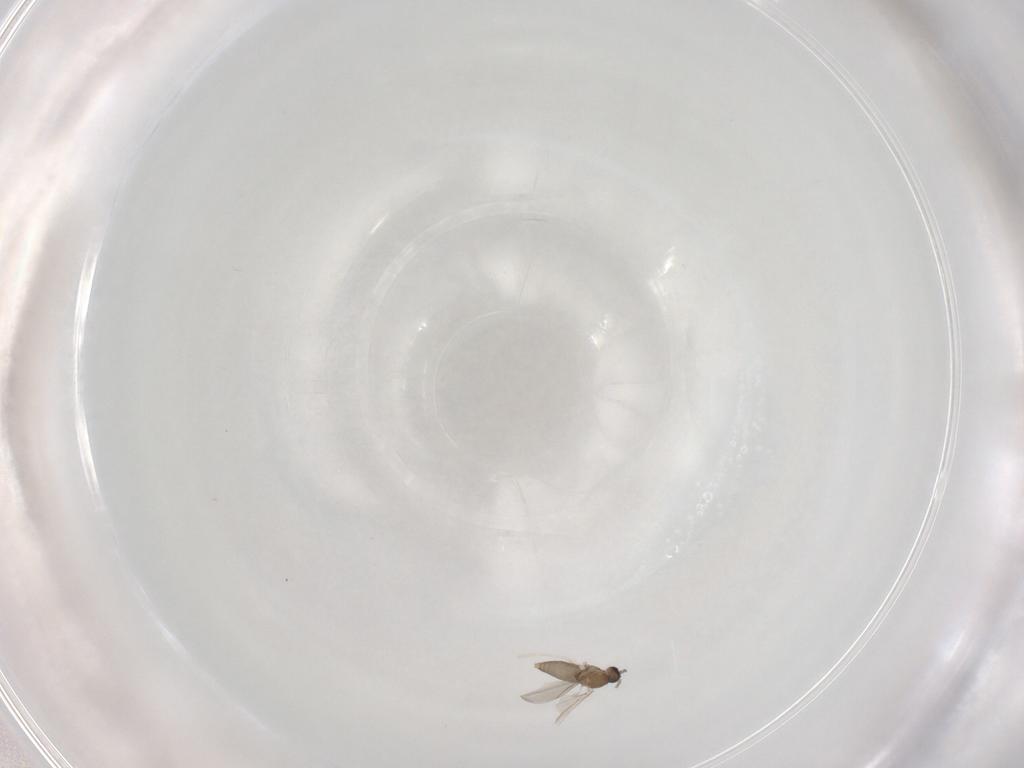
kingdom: Animalia
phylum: Arthropoda
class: Insecta
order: Diptera
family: Cecidomyiidae
